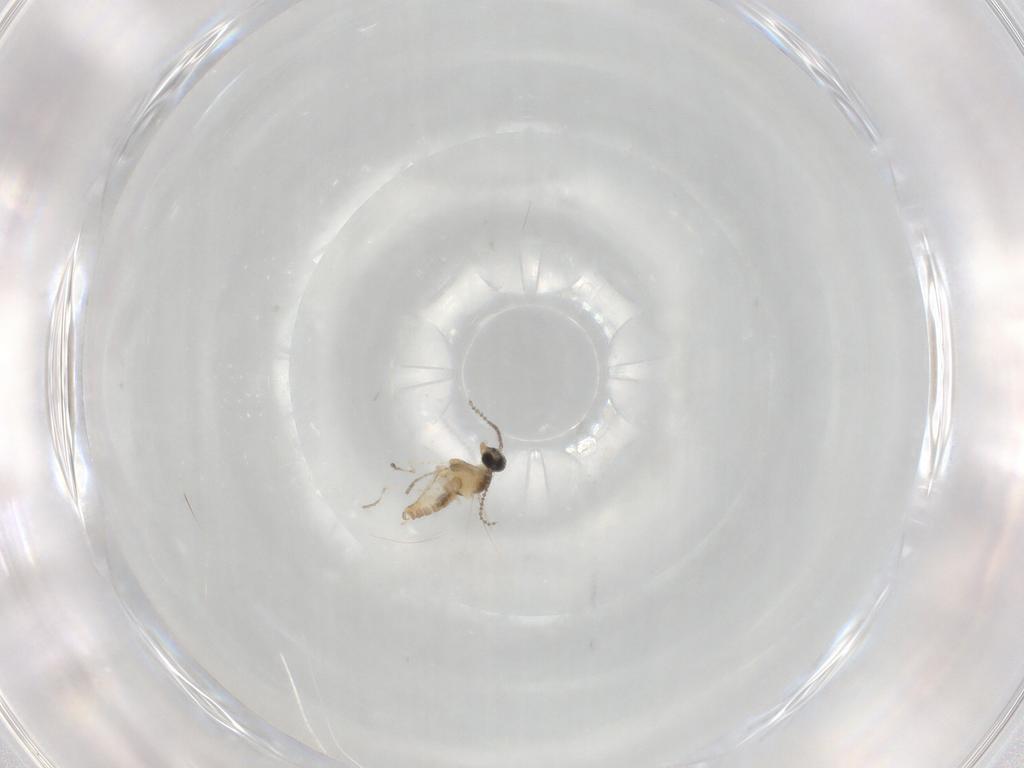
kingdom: Animalia
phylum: Arthropoda
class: Insecta
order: Diptera
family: Cecidomyiidae
